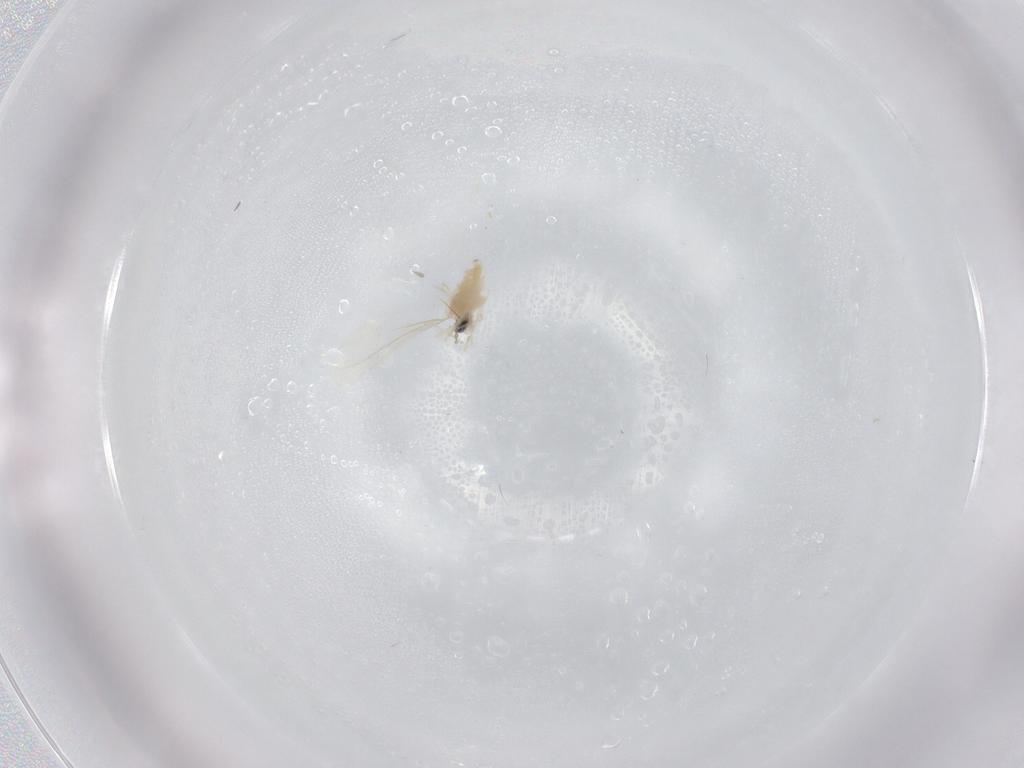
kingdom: Animalia
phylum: Arthropoda
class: Insecta
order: Diptera
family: Cecidomyiidae
